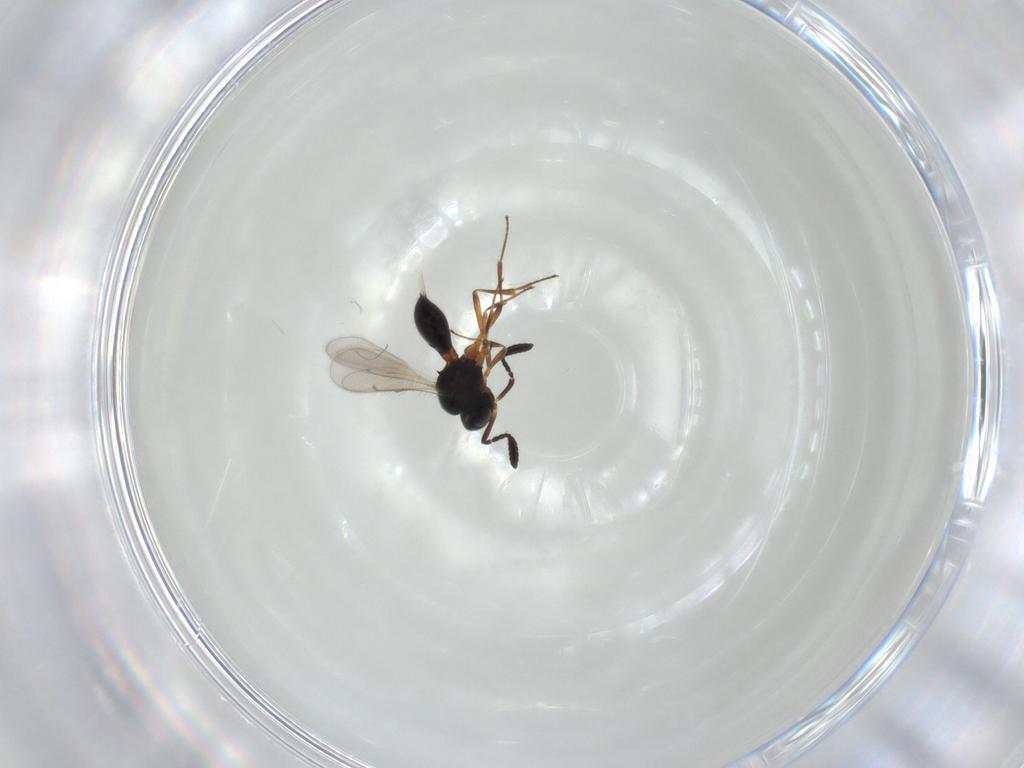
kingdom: Animalia
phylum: Arthropoda
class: Insecta
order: Hymenoptera
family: Scelionidae
